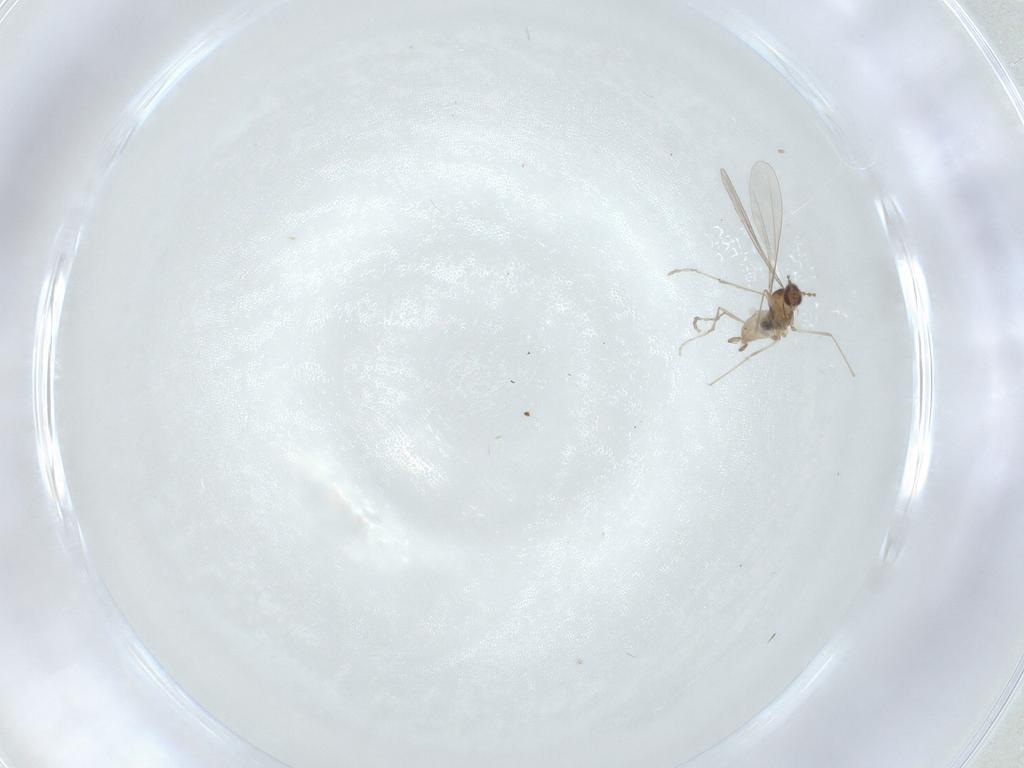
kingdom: Animalia
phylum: Arthropoda
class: Insecta
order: Diptera
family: Cecidomyiidae
